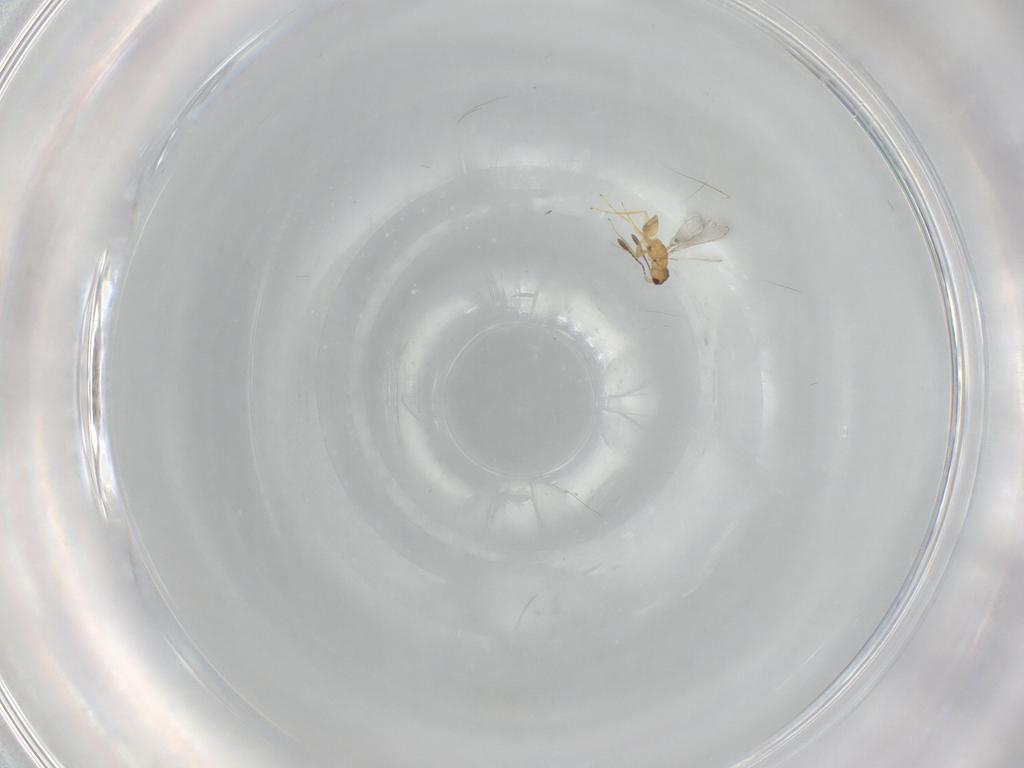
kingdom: Animalia
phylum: Arthropoda
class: Insecta
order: Hymenoptera
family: Mymaridae
